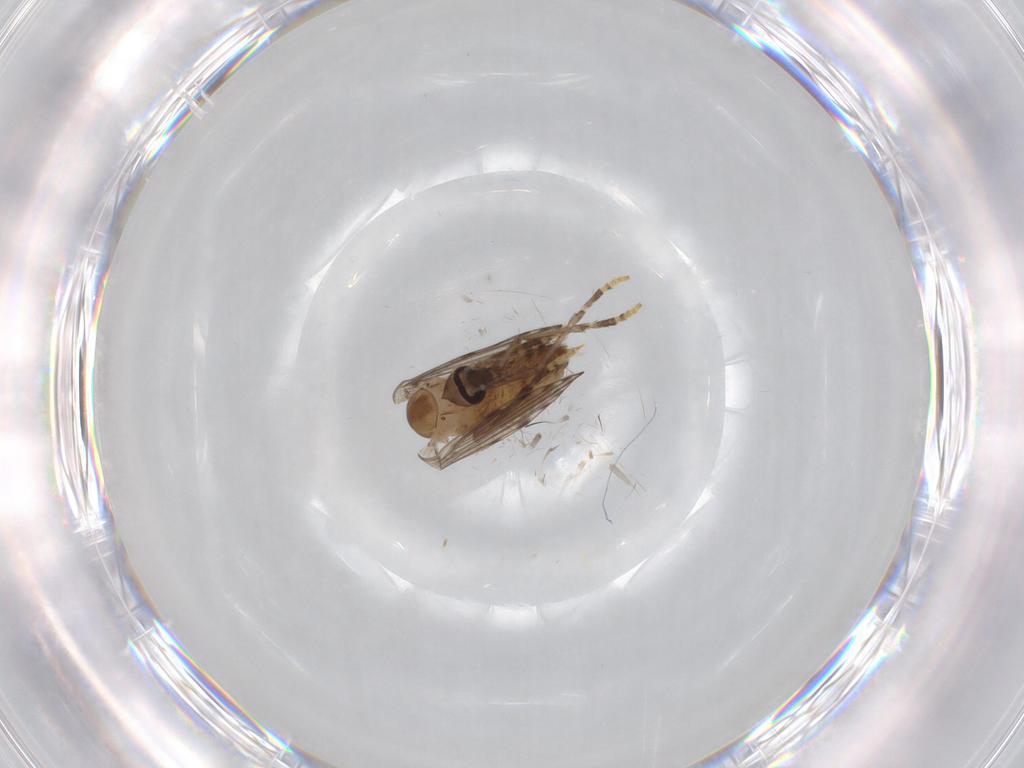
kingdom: Animalia
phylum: Arthropoda
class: Insecta
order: Diptera
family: Psychodidae
